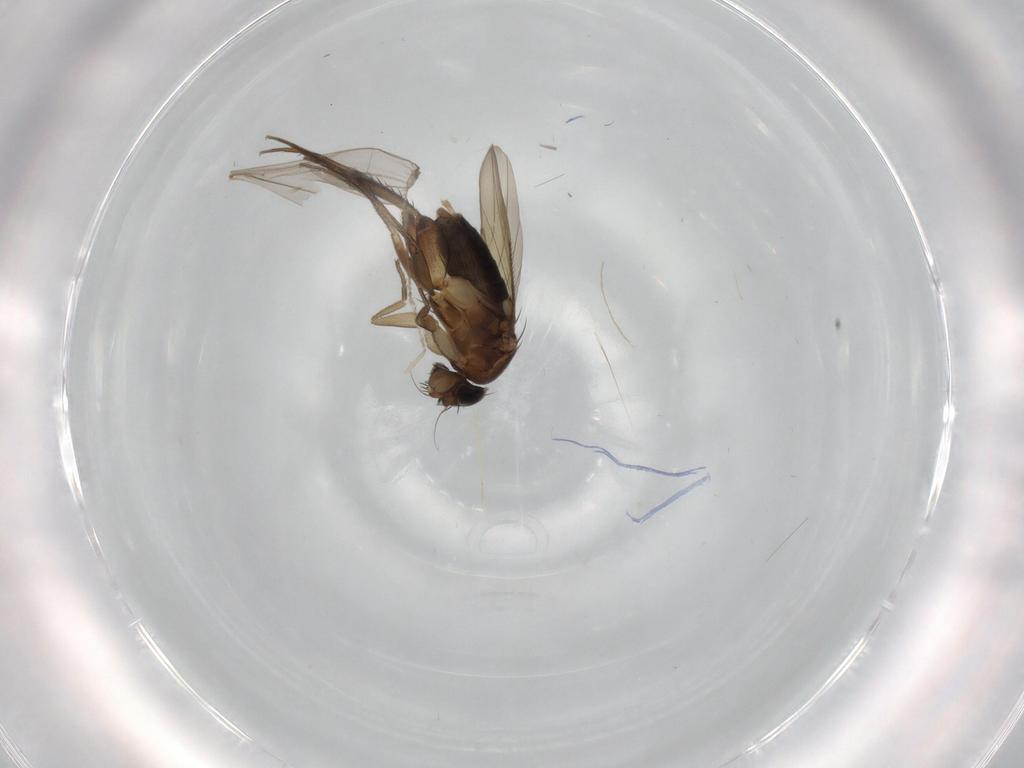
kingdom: Animalia
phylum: Arthropoda
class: Insecta
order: Diptera
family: Phoridae
